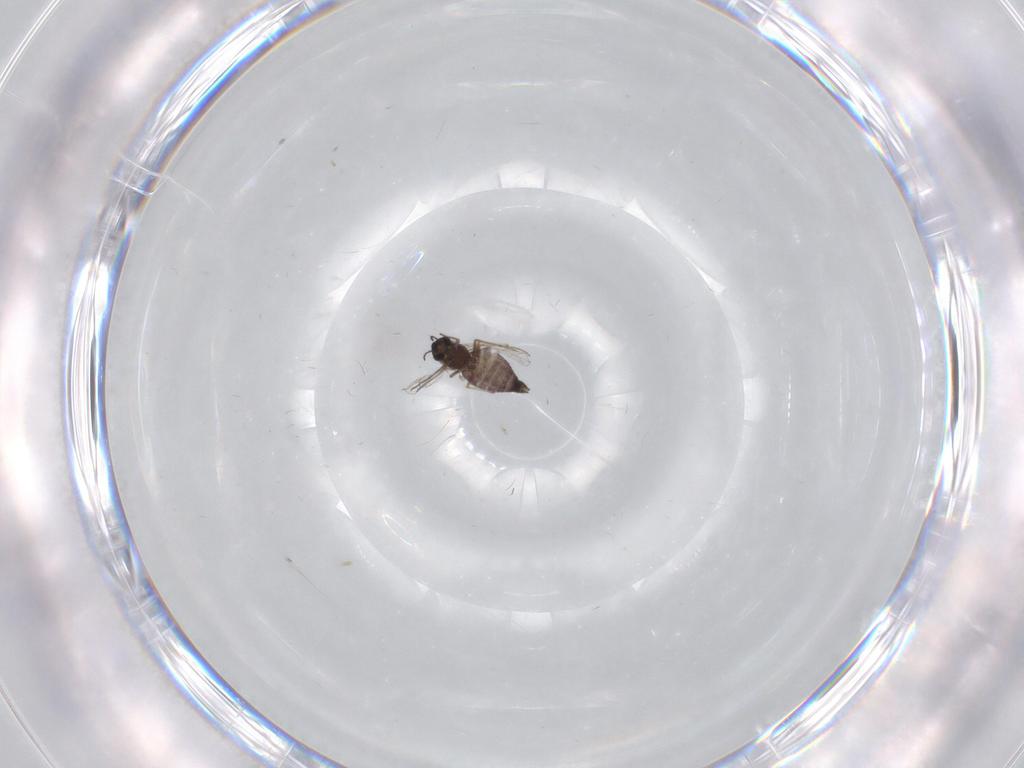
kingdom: Animalia
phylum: Arthropoda
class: Insecta
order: Diptera
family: Chironomidae
